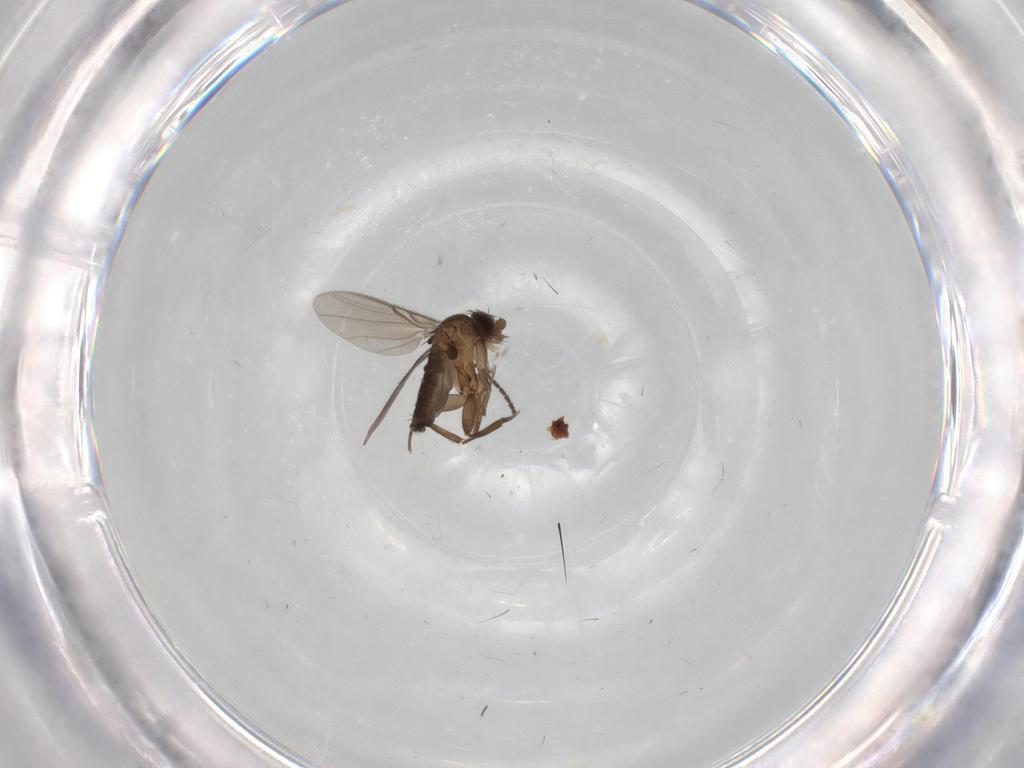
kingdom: Animalia
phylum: Arthropoda
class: Insecta
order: Diptera
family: Phoridae
